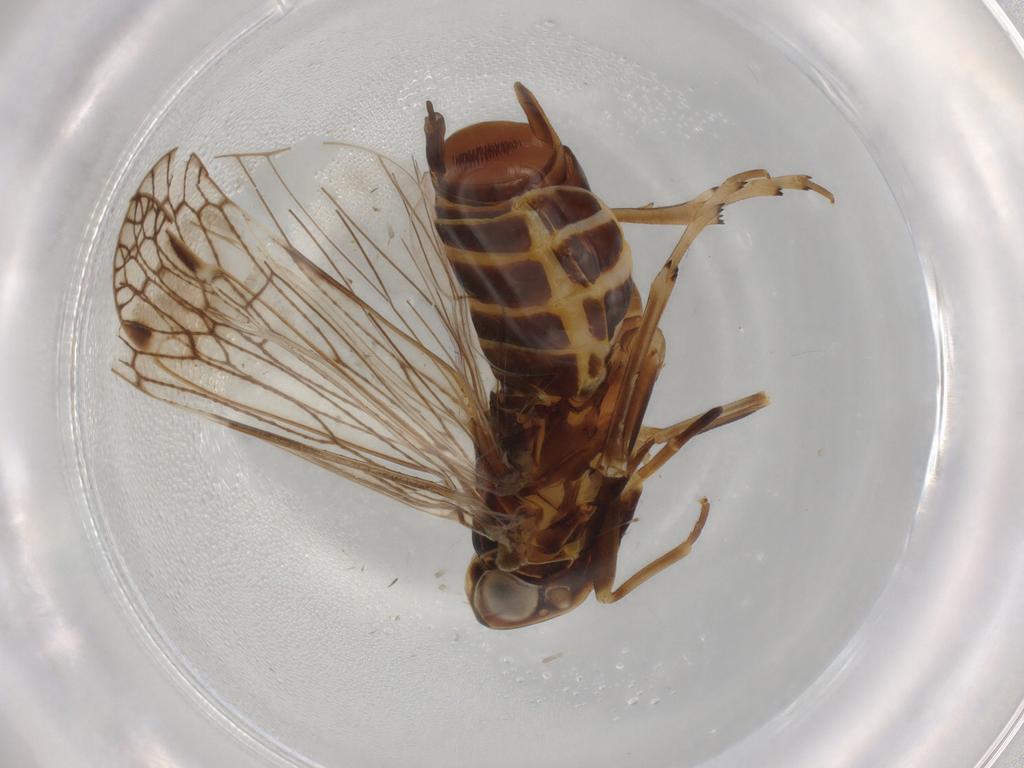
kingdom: Animalia
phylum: Arthropoda
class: Insecta
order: Hemiptera
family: Cixiidae
